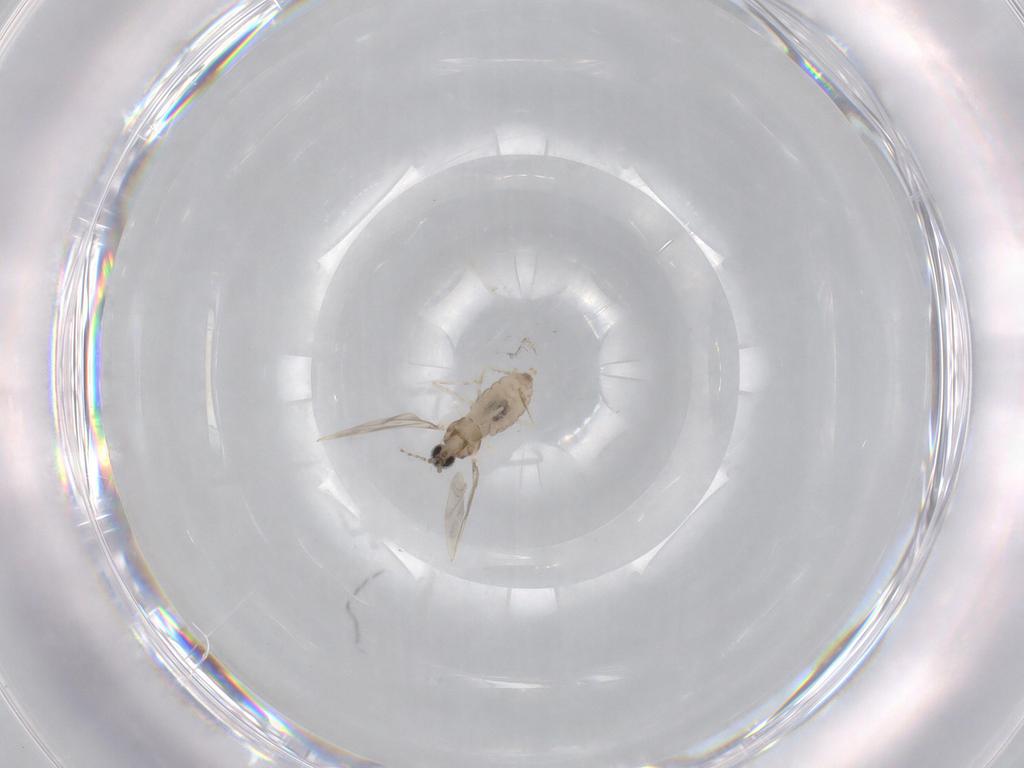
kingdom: Animalia
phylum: Arthropoda
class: Insecta
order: Diptera
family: Cecidomyiidae
